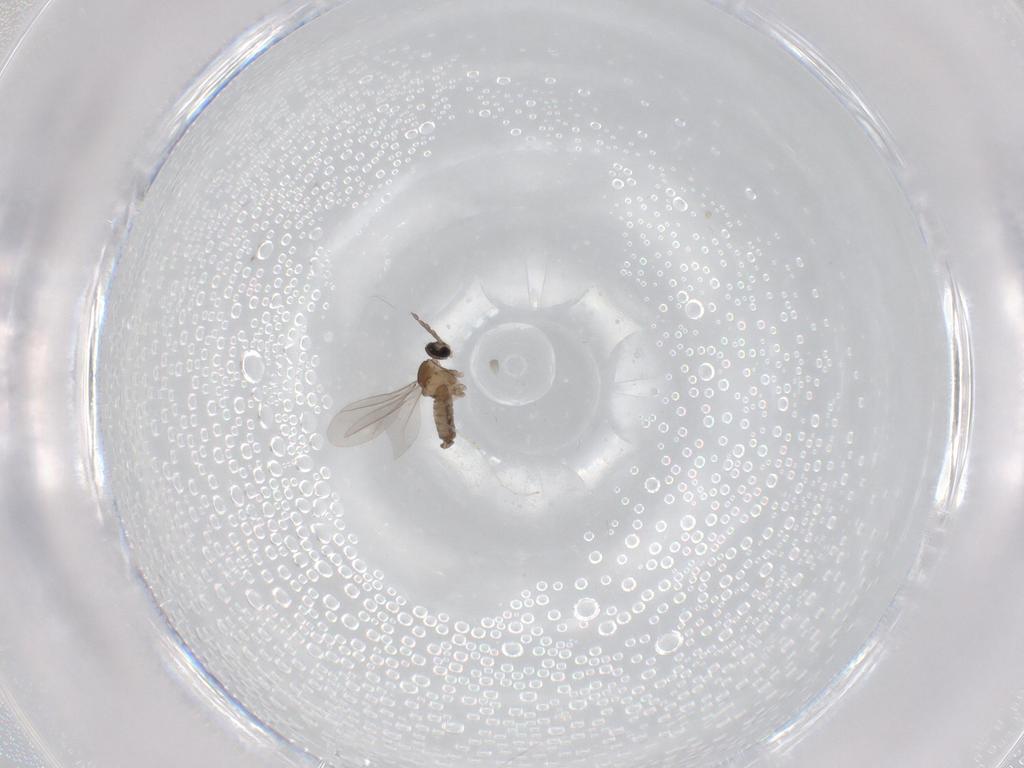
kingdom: Animalia
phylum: Arthropoda
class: Insecta
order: Diptera
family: Cecidomyiidae
